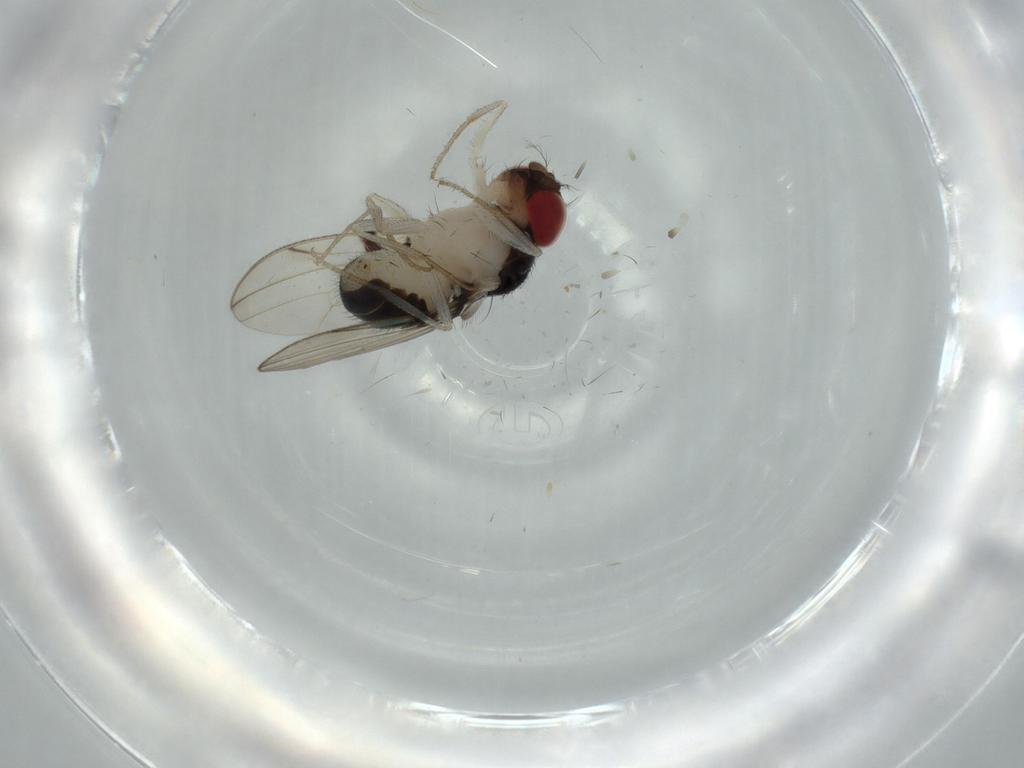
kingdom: Animalia
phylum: Arthropoda
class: Insecta
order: Diptera
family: Drosophilidae
